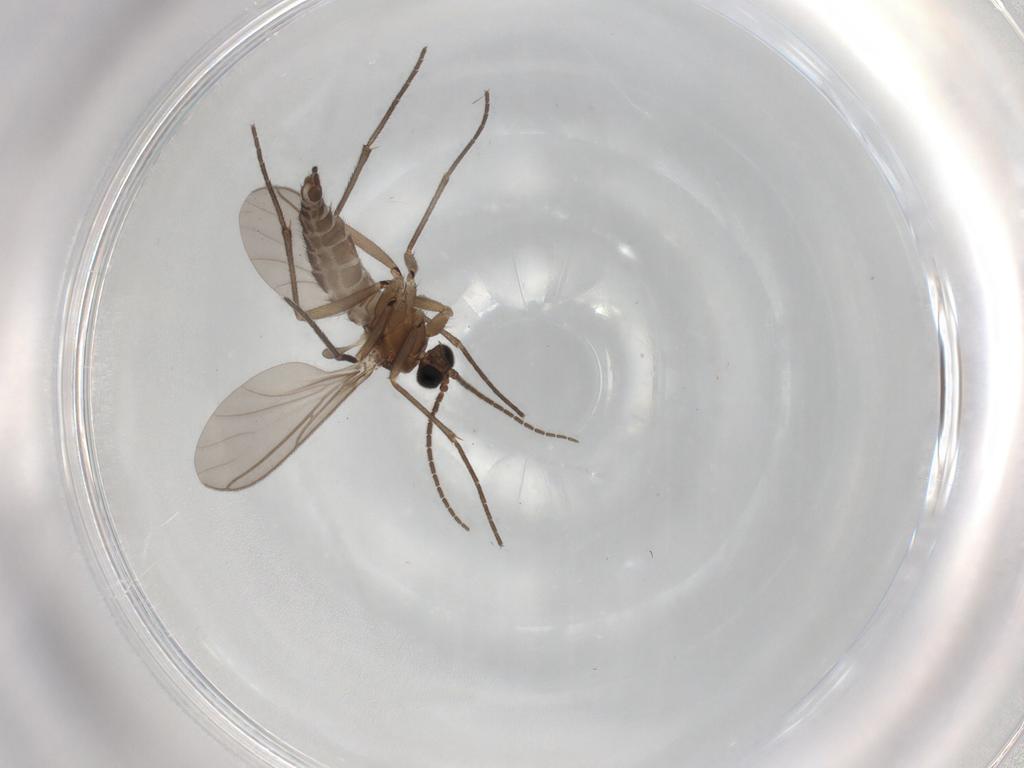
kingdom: Animalia
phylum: Arthropoda
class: Insecta
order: Diptera
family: Sciaridae
